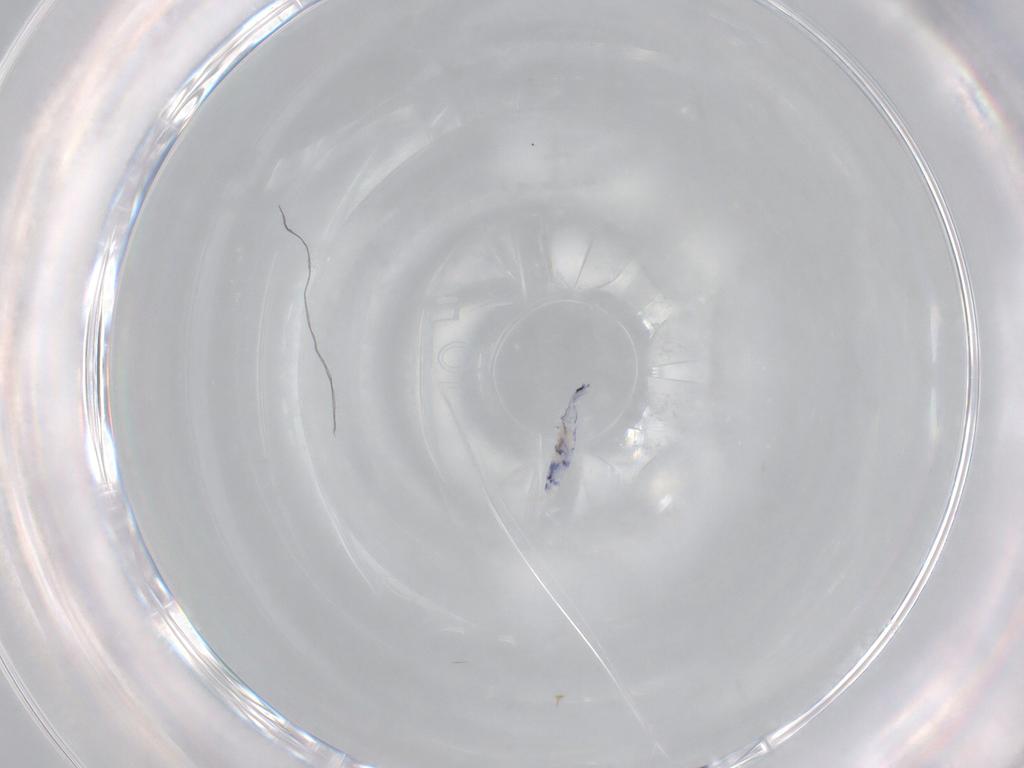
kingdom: Animalia
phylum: Arthropoda
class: Collembola
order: Entomobryomorpha
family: Entomobryidae
